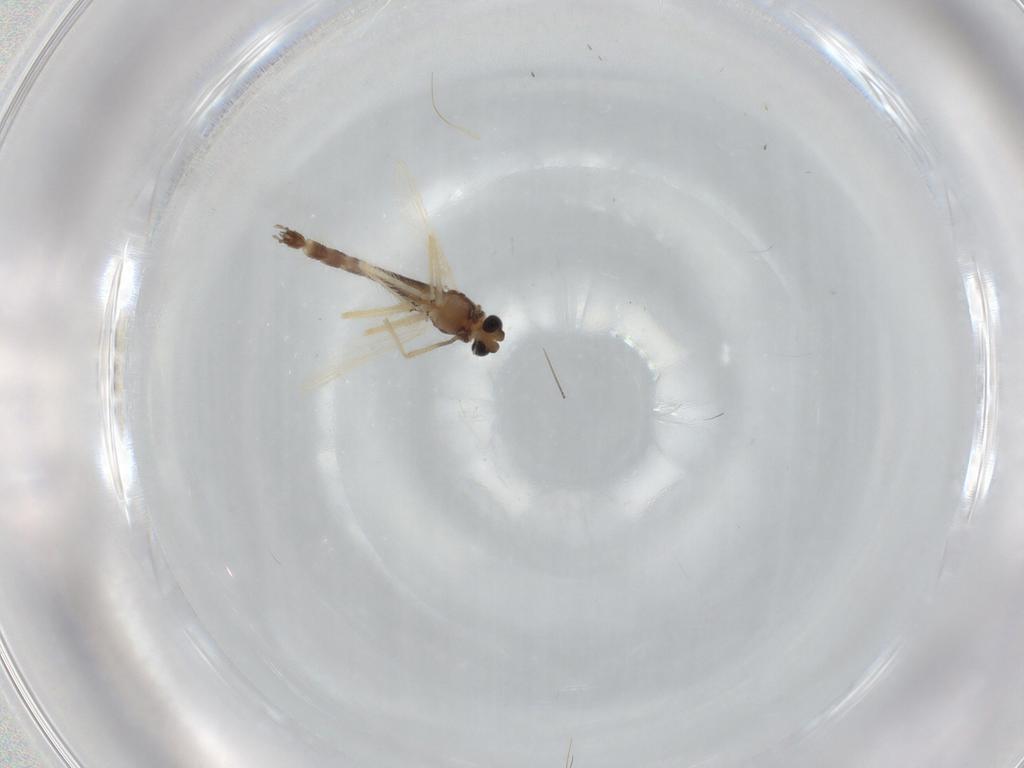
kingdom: Animalia
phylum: Arthropoda
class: Insecta
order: Diptera
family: Chironomidae
